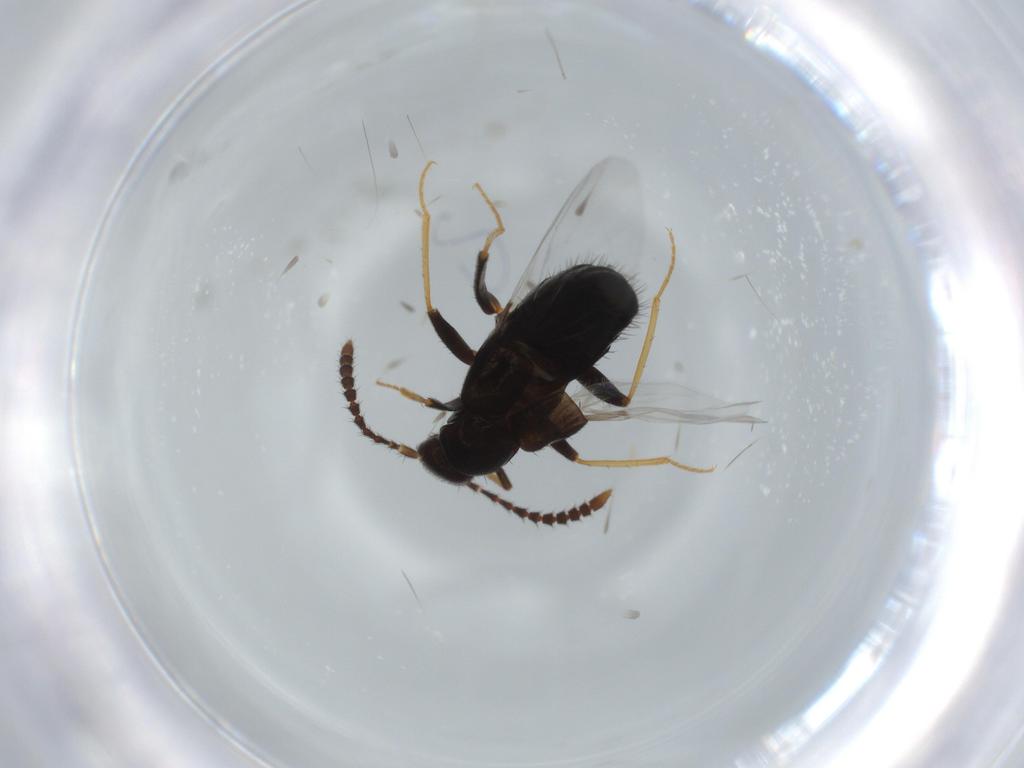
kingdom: Animalia
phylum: Arthropoda
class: Insecta
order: Coleoptera
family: Staphylinidae
